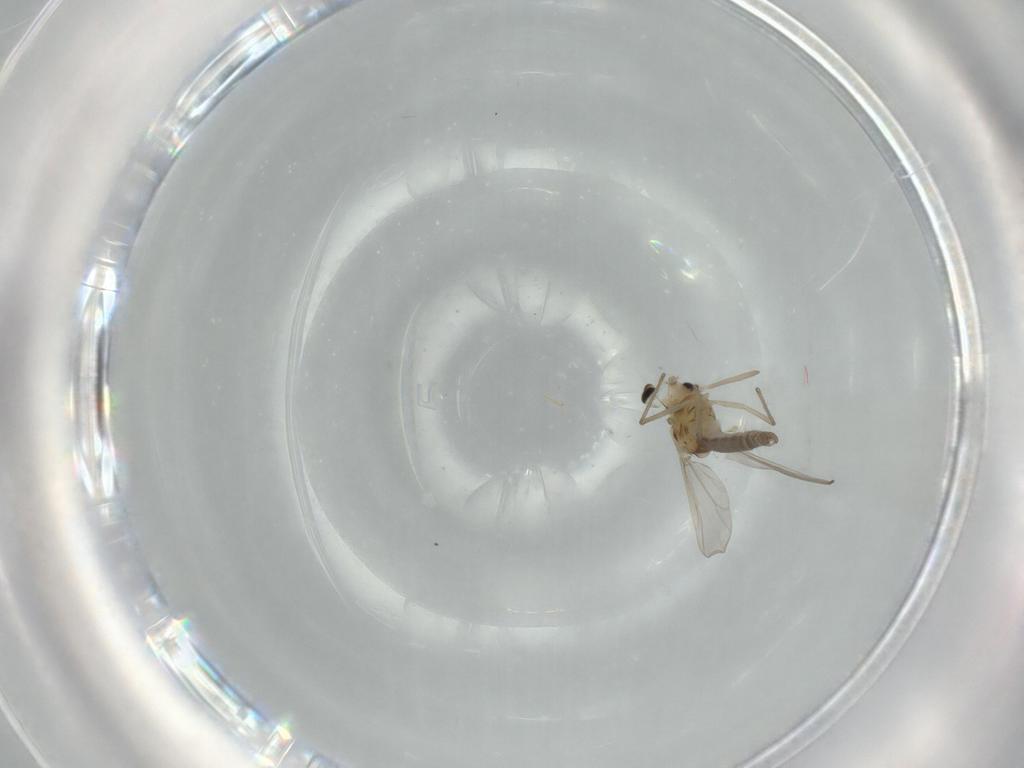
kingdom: Animalia
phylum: Arthropoda
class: Insecta
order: Diptera
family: Chironomidae
